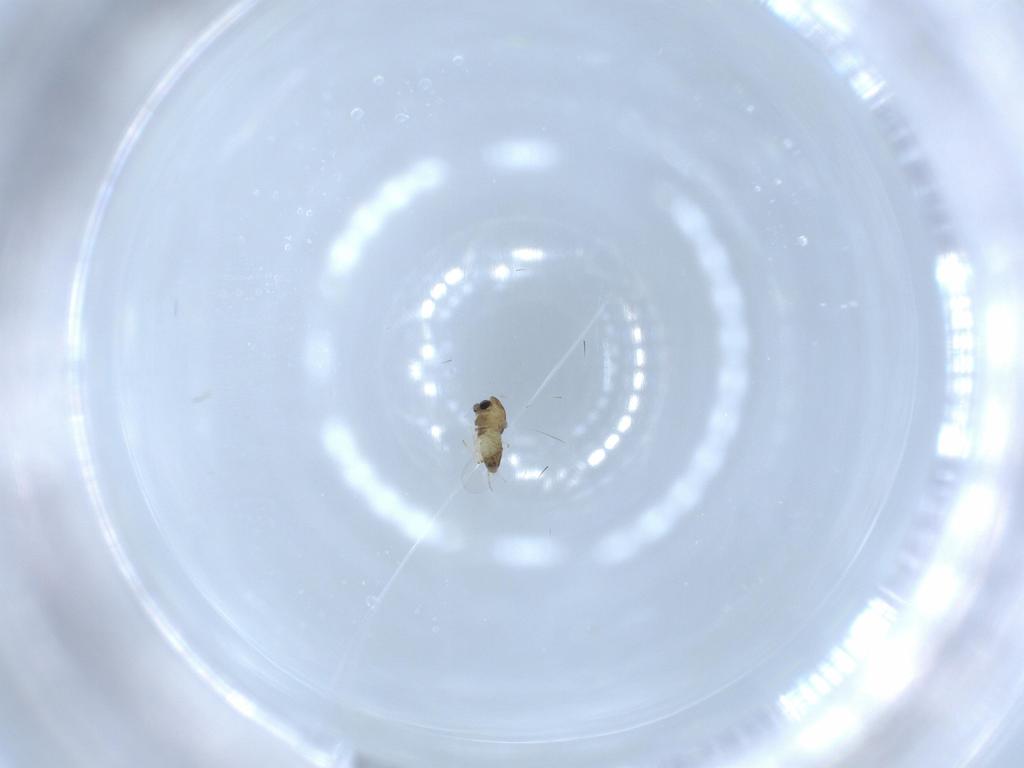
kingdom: Animalia
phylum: Arthropoda
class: Insecta
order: Diptera
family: Chironomidae
